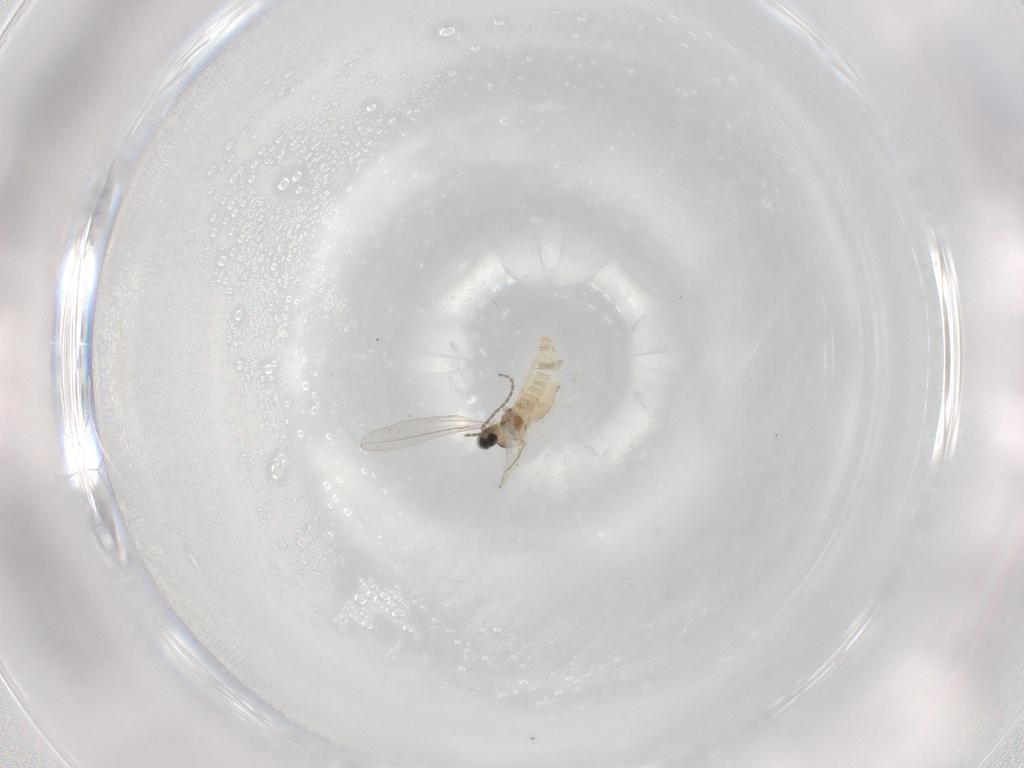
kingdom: Animalia
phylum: Arthropoda
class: Insecta
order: Diptera
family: Cecidomyiidae
